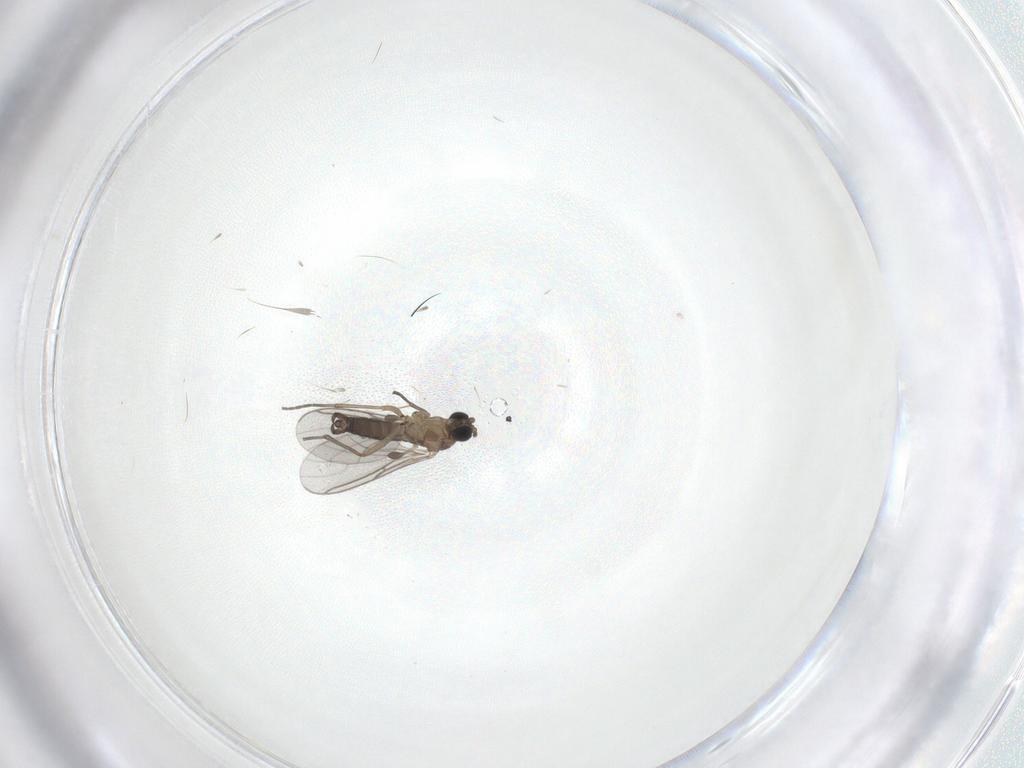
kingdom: Animalia
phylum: Arthropoda
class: Insecta
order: Diptera
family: Sciaridae
